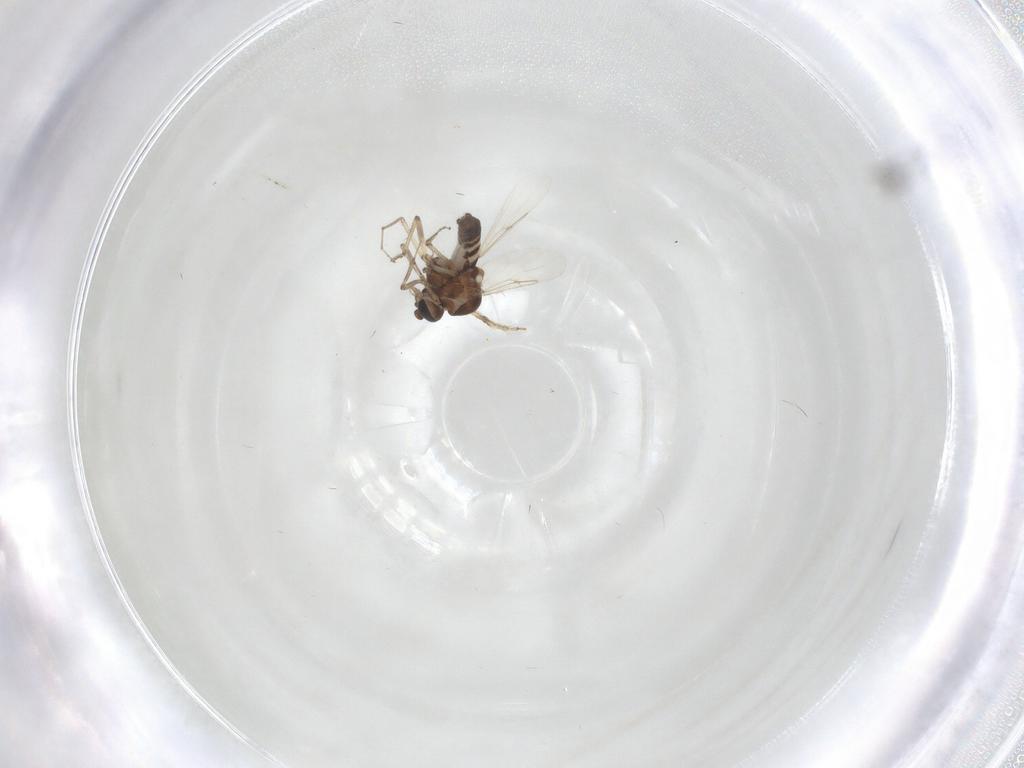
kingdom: Animalia
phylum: Arthropoda
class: Insecta
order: Diptera
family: Ceratopogonidae
